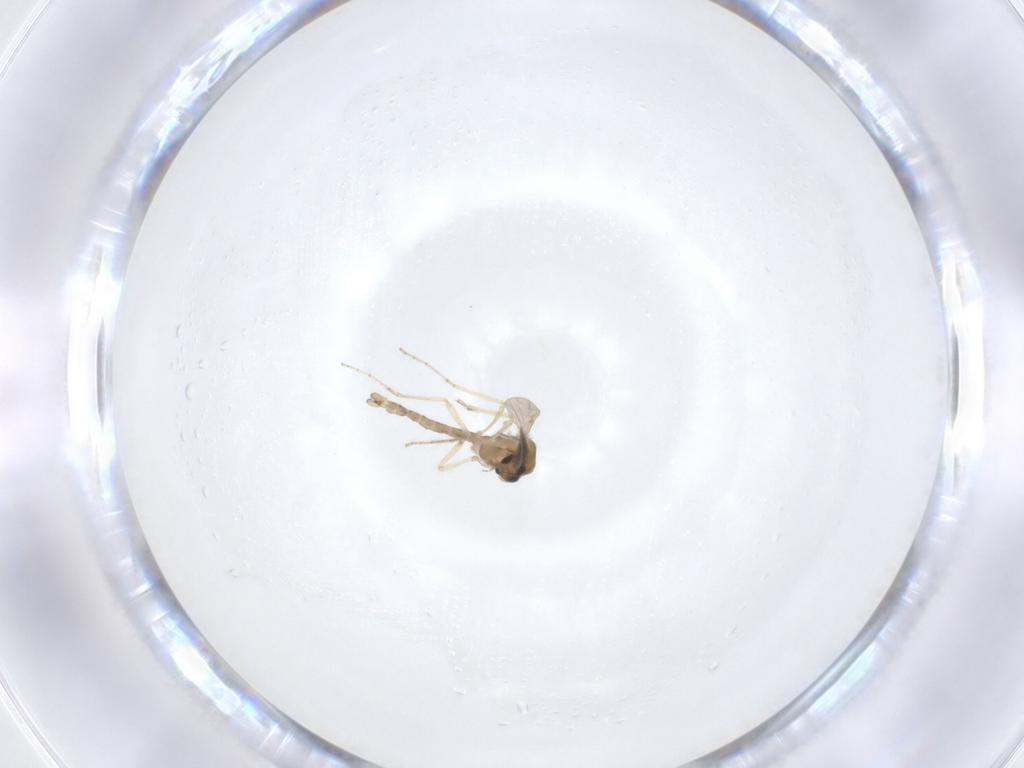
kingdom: Animalia
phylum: Arthropoda
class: Insecta
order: Diptera
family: Ceratopogonidae
